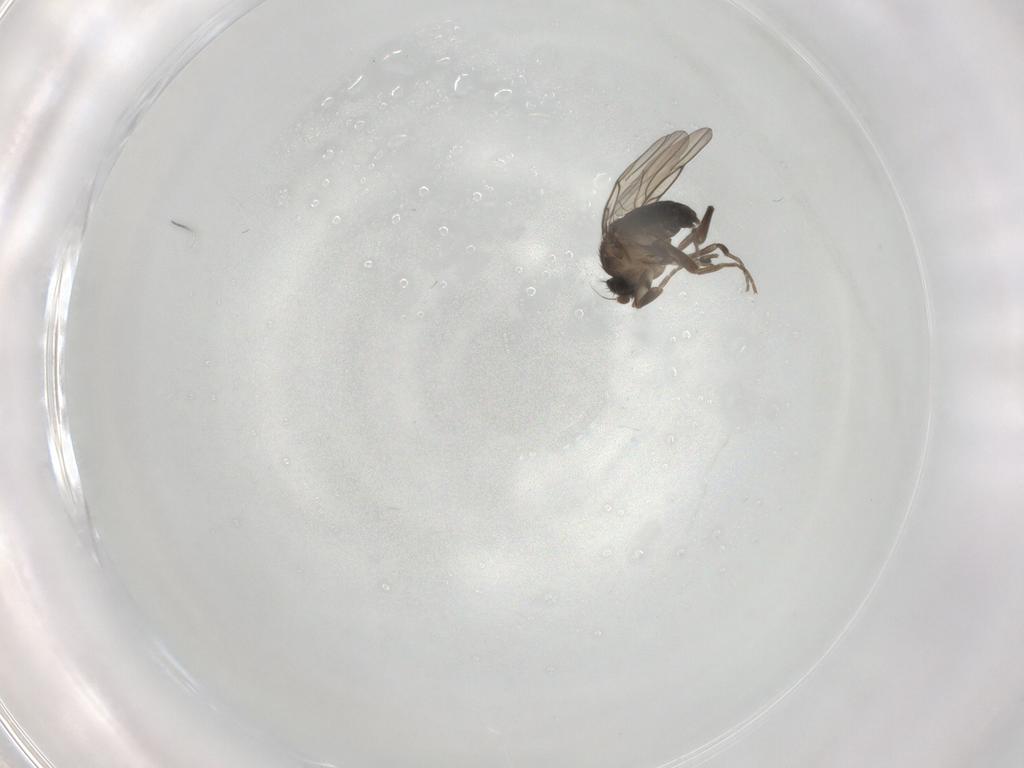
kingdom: Animalia
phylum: Arthropoda
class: Insecta
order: Diptera
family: Phoridae
